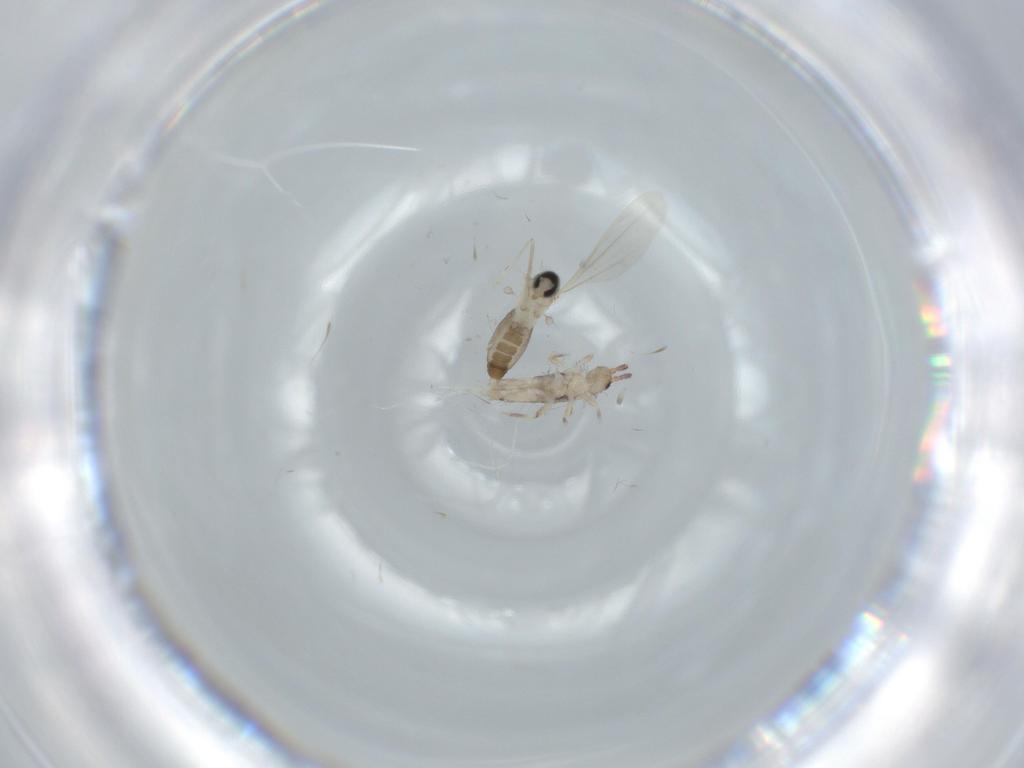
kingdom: Animalia
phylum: Arthropoda
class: Insecta
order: Diptera
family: Cecidomyiidae
